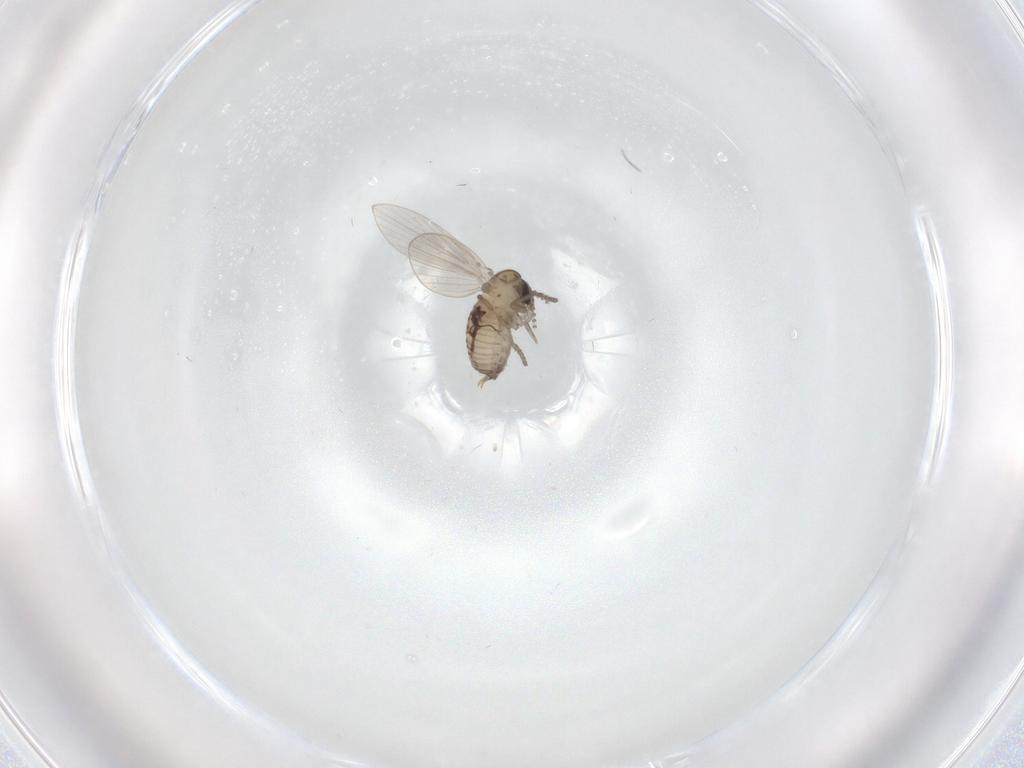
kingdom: Animalia
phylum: Arthropoda
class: Insecta
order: Diptera
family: Psychodidae
